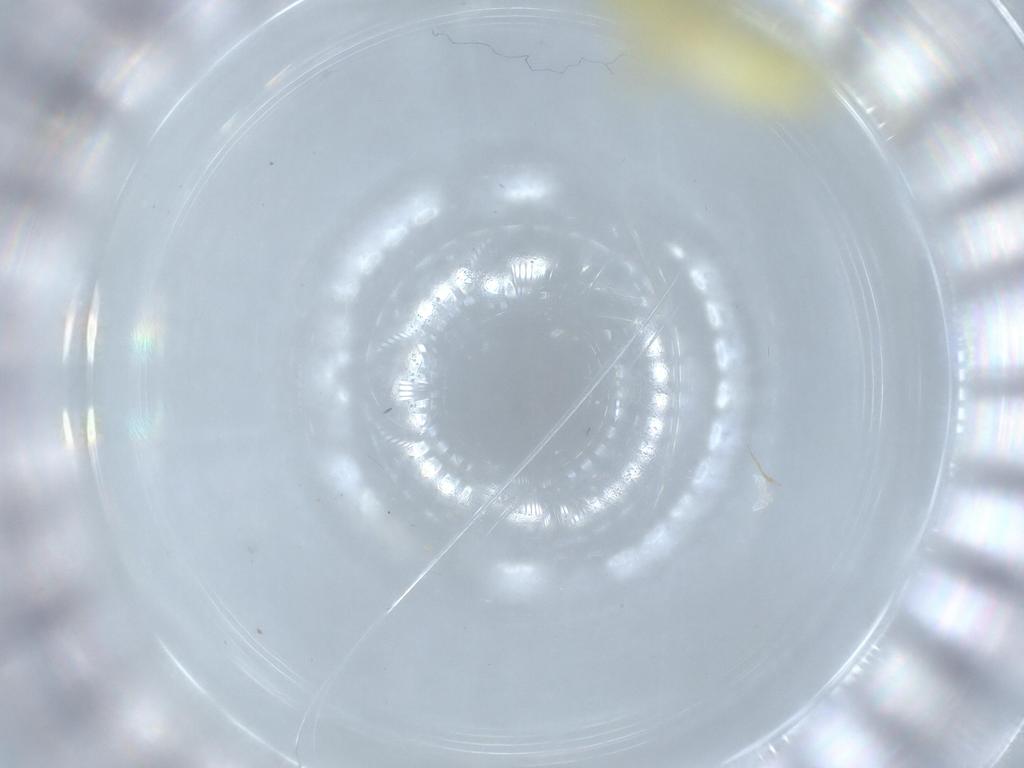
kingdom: Animalia
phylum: Arthropoda
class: Insecta
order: Hemiptera
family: Cicadellidae
